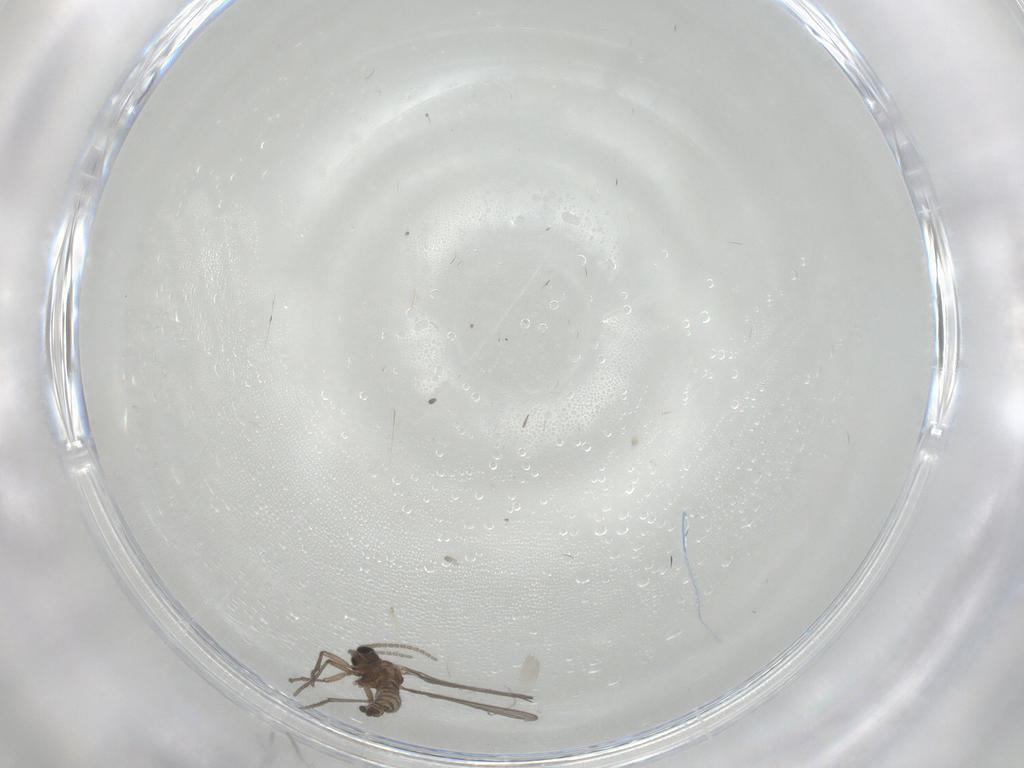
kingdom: Animalia
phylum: Arthropoda
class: Insecta
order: Diptera
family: Sciaridae
